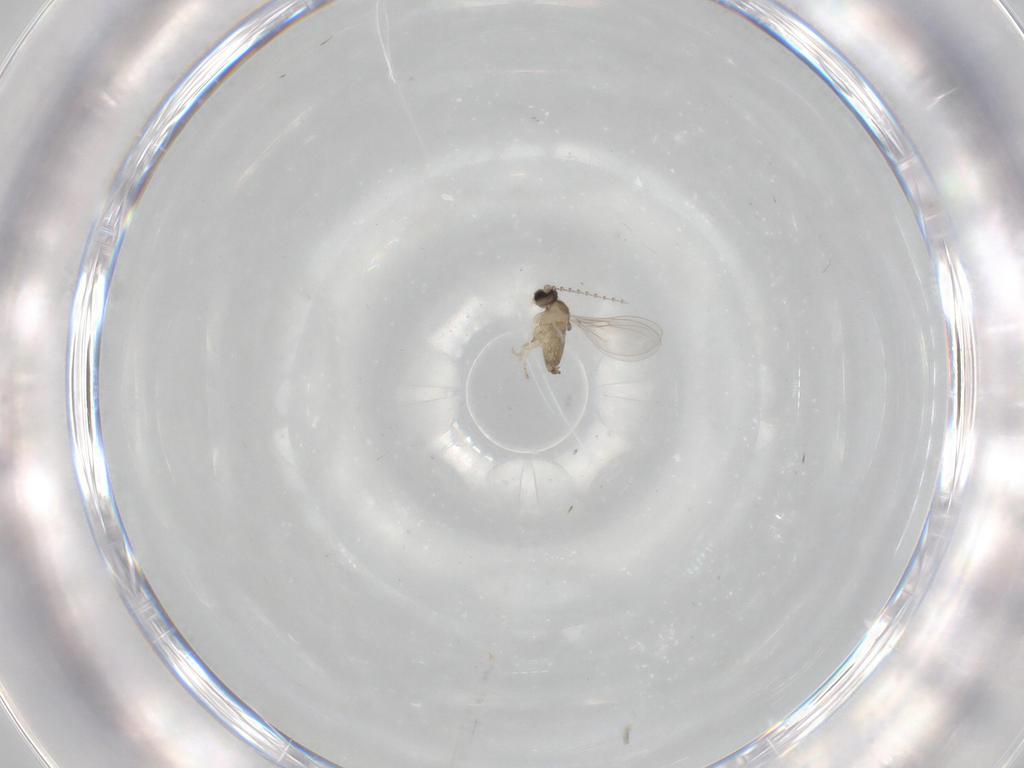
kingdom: Animalia
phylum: Arthropoda
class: Insecta
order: Diptera
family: Cecidomyiidae
